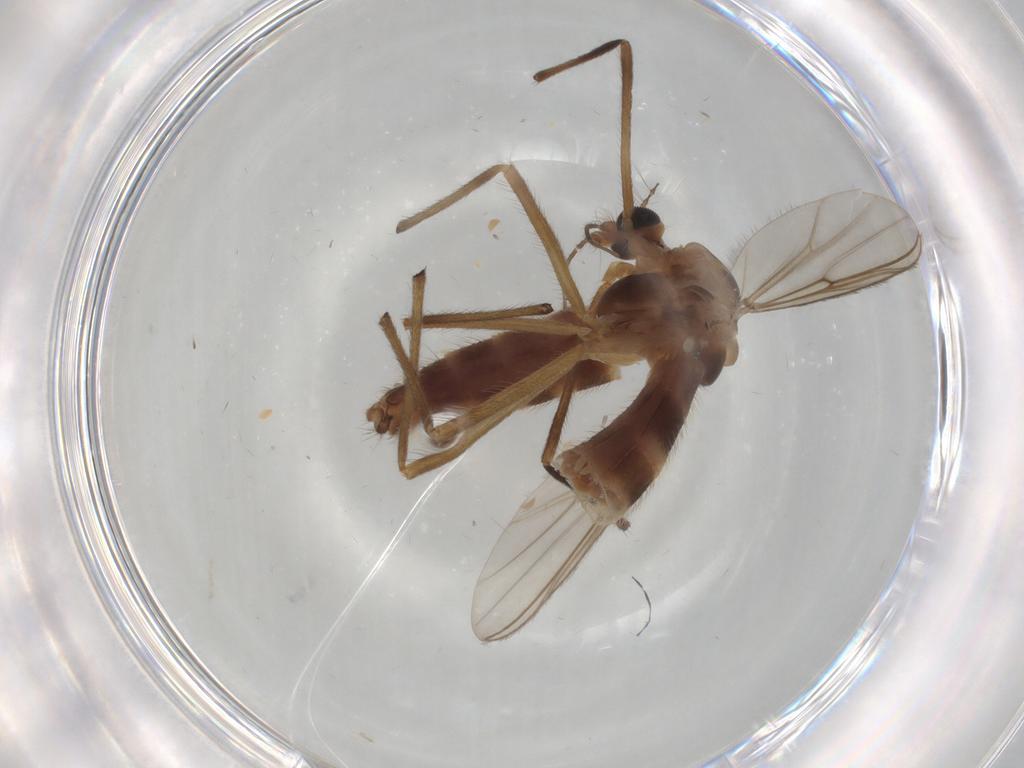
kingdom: Animalia
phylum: Arthropoda
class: Insecta
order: Diptera
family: Chironomidae
